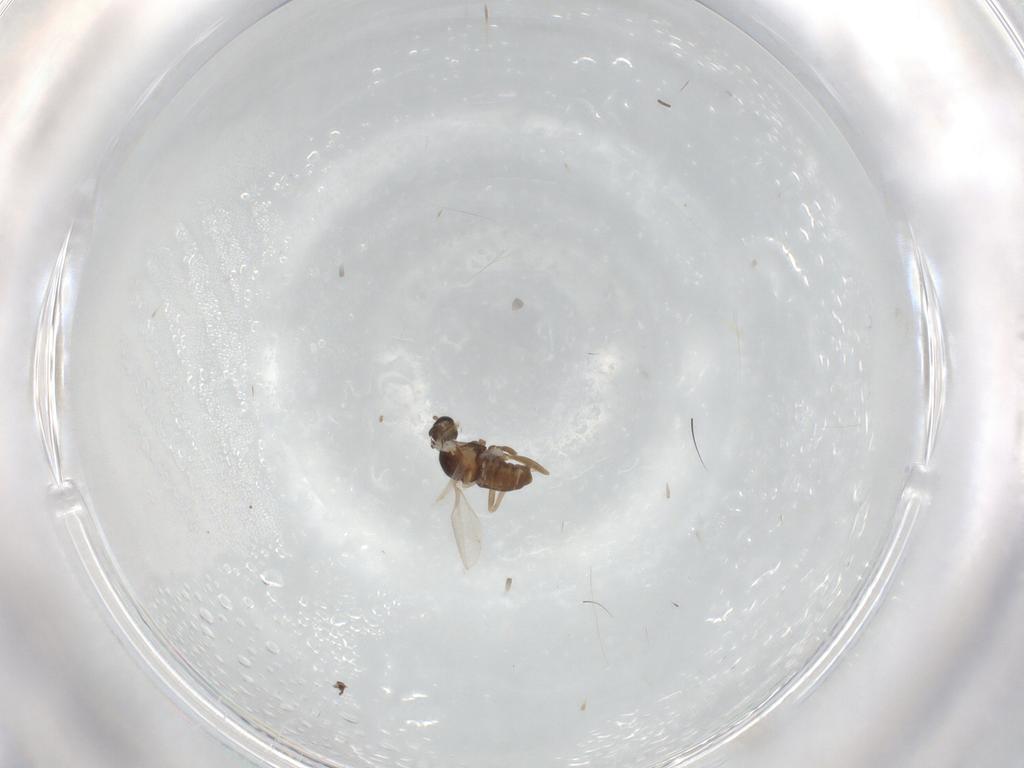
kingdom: Animalia
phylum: Arthropoda
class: Insecta
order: Diptera
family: Cecidomyiidae
